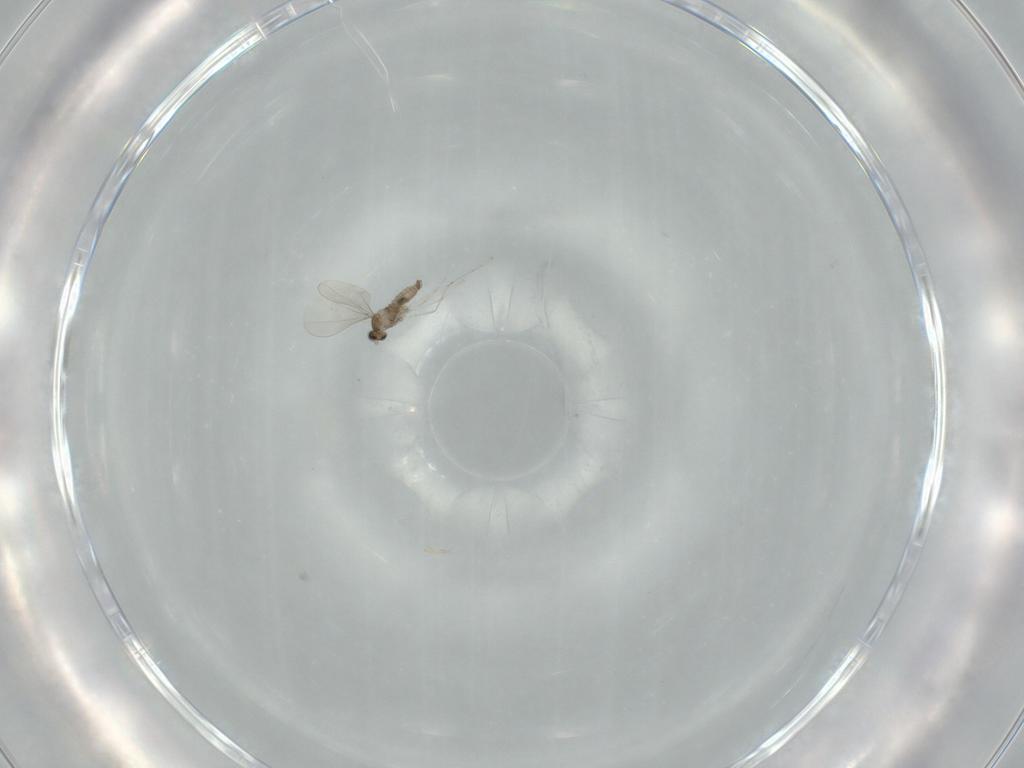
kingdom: Animalia
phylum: Arthropoda
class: Insecta
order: Diptera
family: Cecidomyiidae
